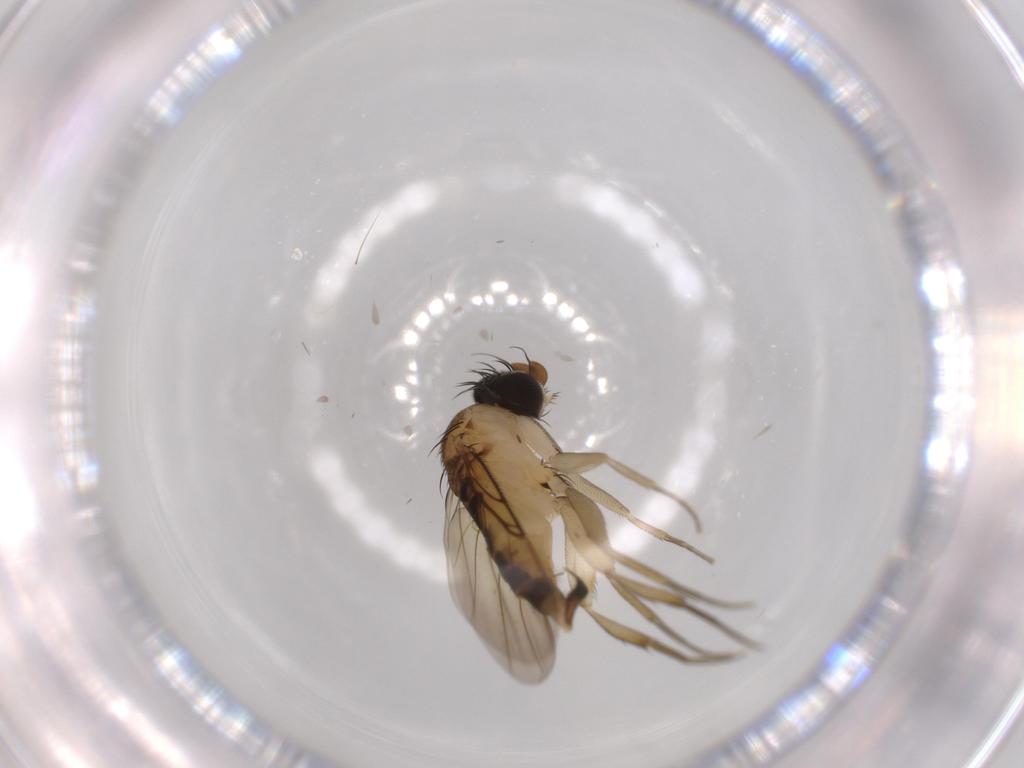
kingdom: Animalia
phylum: Arthropoda
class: Insecta
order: Diptera
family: Phoridae
